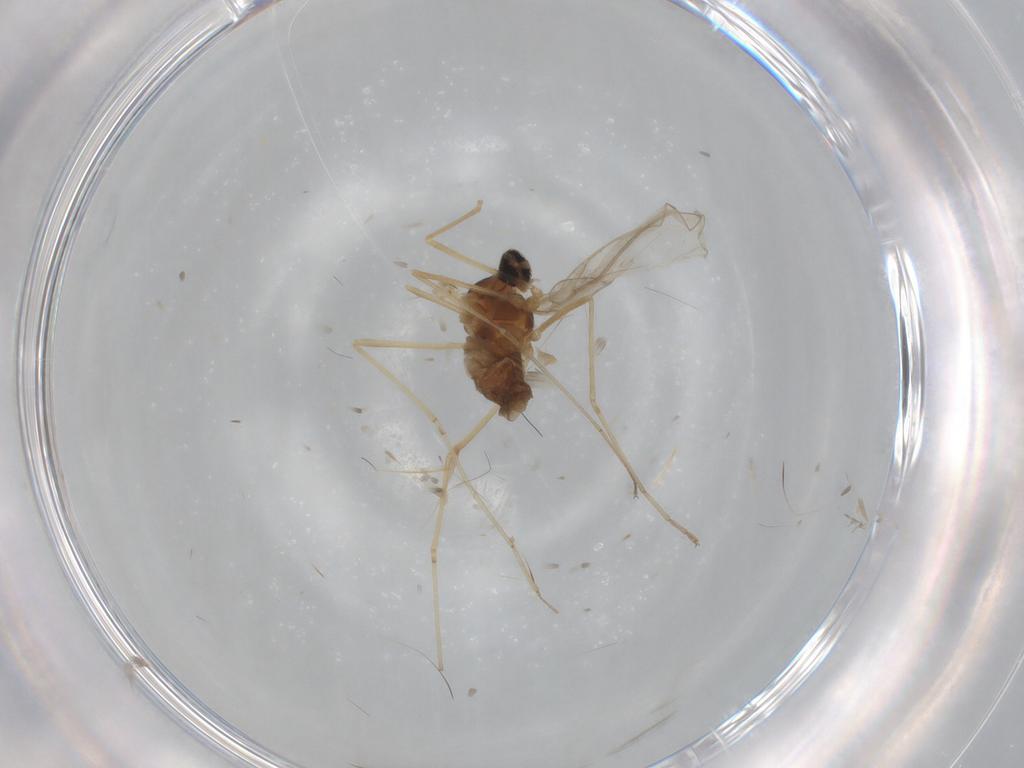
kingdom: Animalia
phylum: Arthropoda
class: Insecta
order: Diptera
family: Cecidomyiidae
